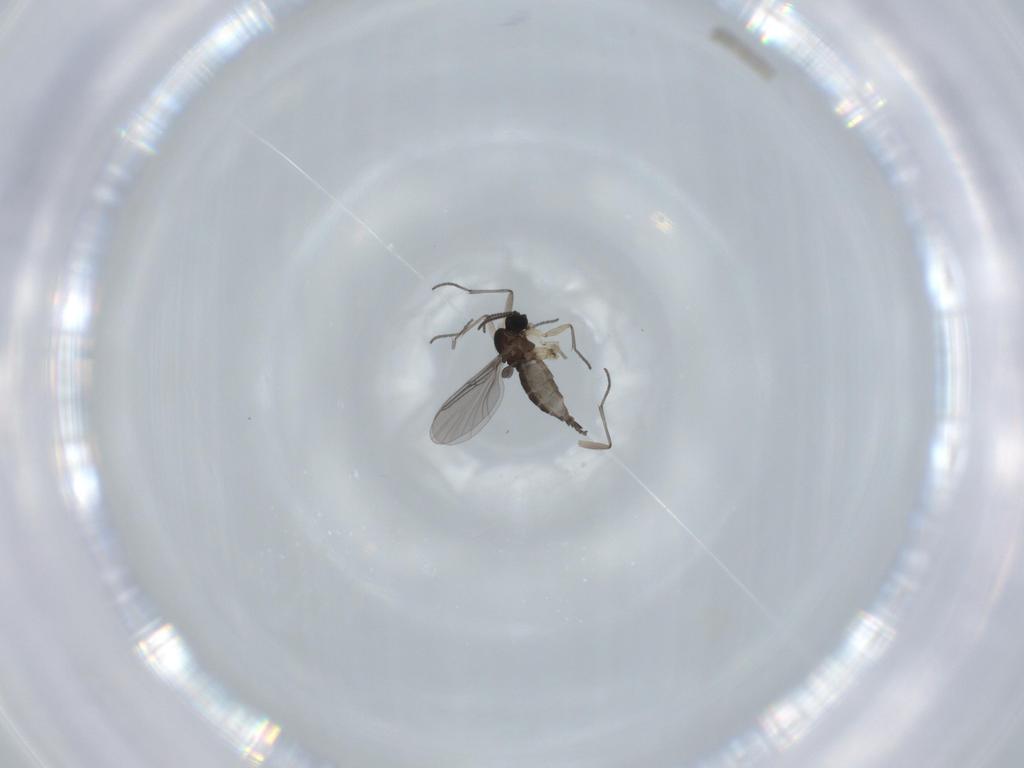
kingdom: Animalia
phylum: Arthropoda
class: Insecta
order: Diptera
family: Sciaridae
